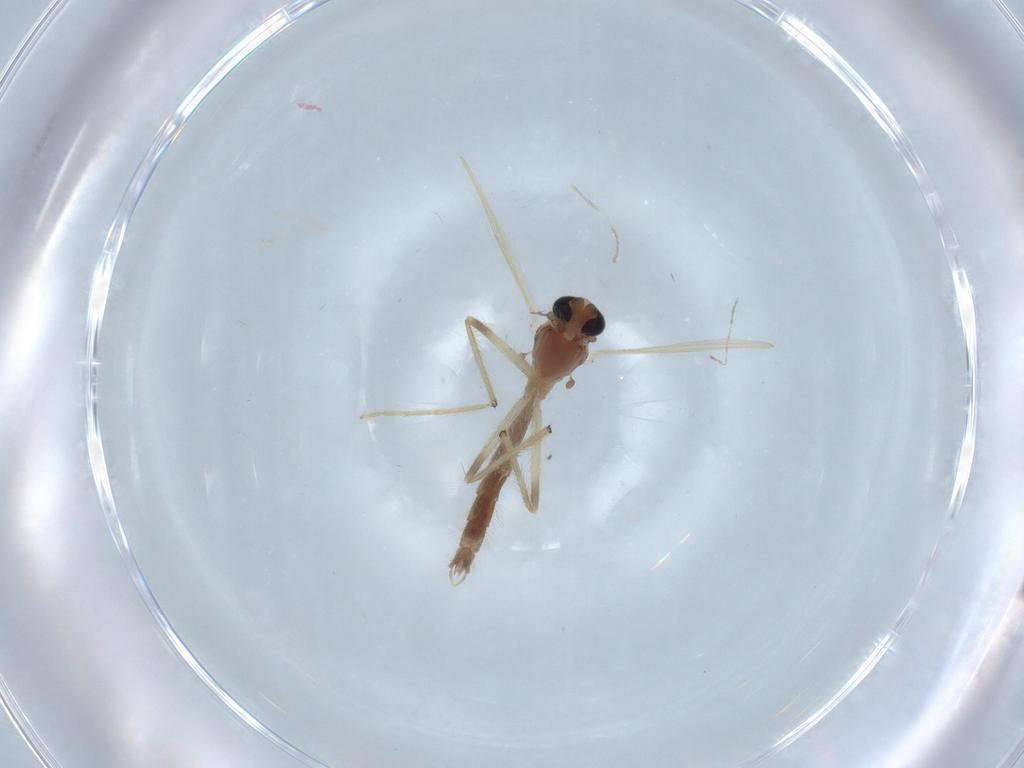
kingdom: Animalia
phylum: Arthropoda
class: Insecta
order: Diptera
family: Chironomidae
